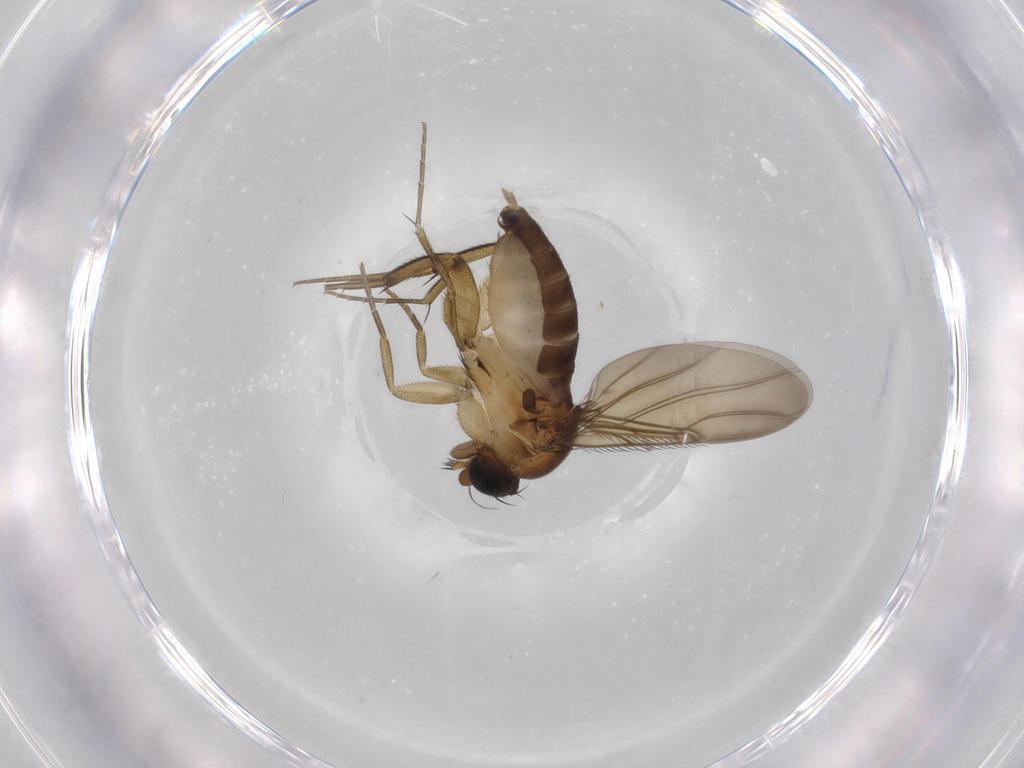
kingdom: Animalia
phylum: Arthropoda
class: Insecta
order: Diptera
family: Phoridae
